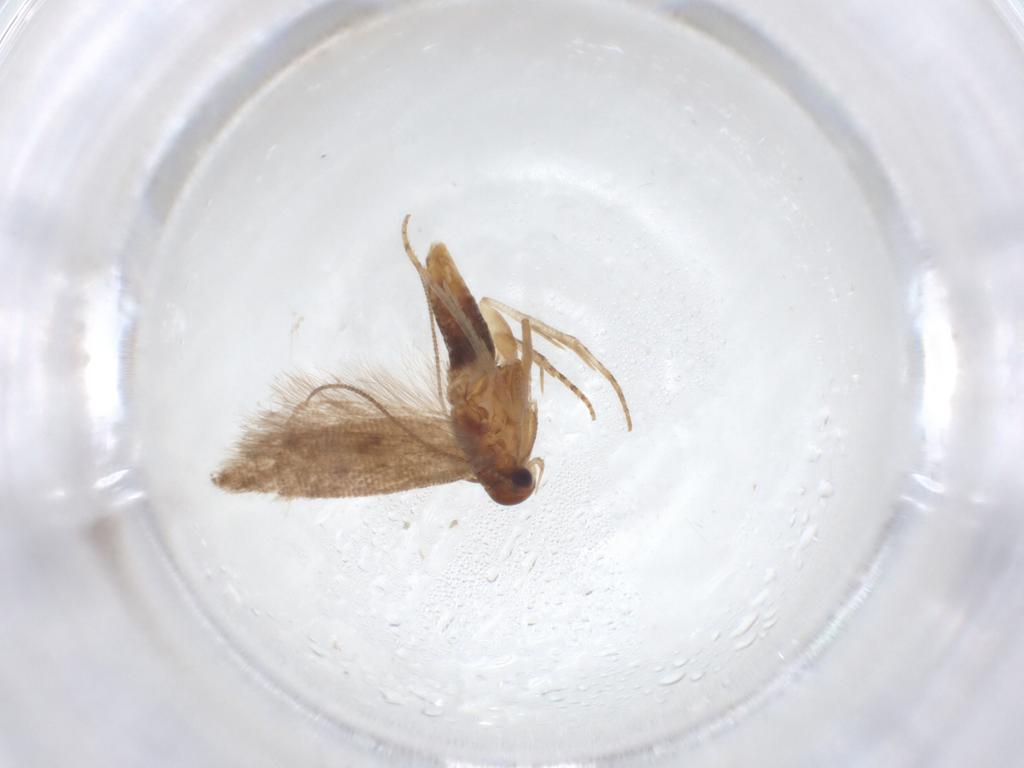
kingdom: Animalia
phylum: Arthropoda
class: Insecta
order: Lepidoptera
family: Gelechiidae
